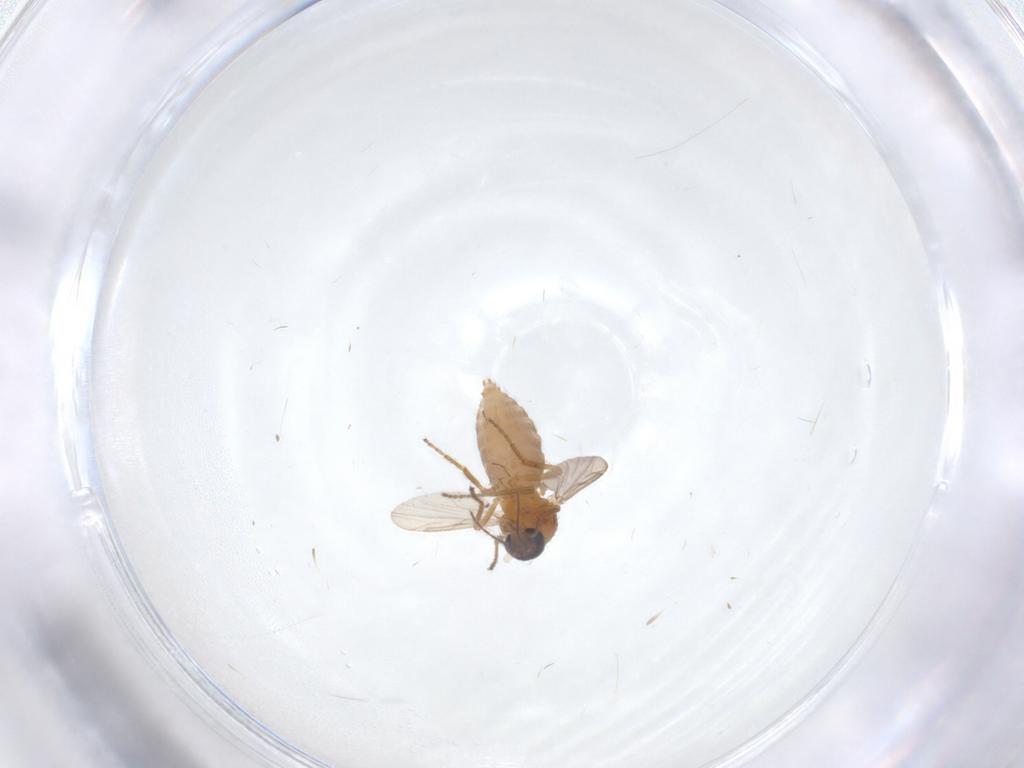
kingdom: Animalia
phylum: Arthropoda
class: Insecta
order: Diptera
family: Ceratopogonidae
